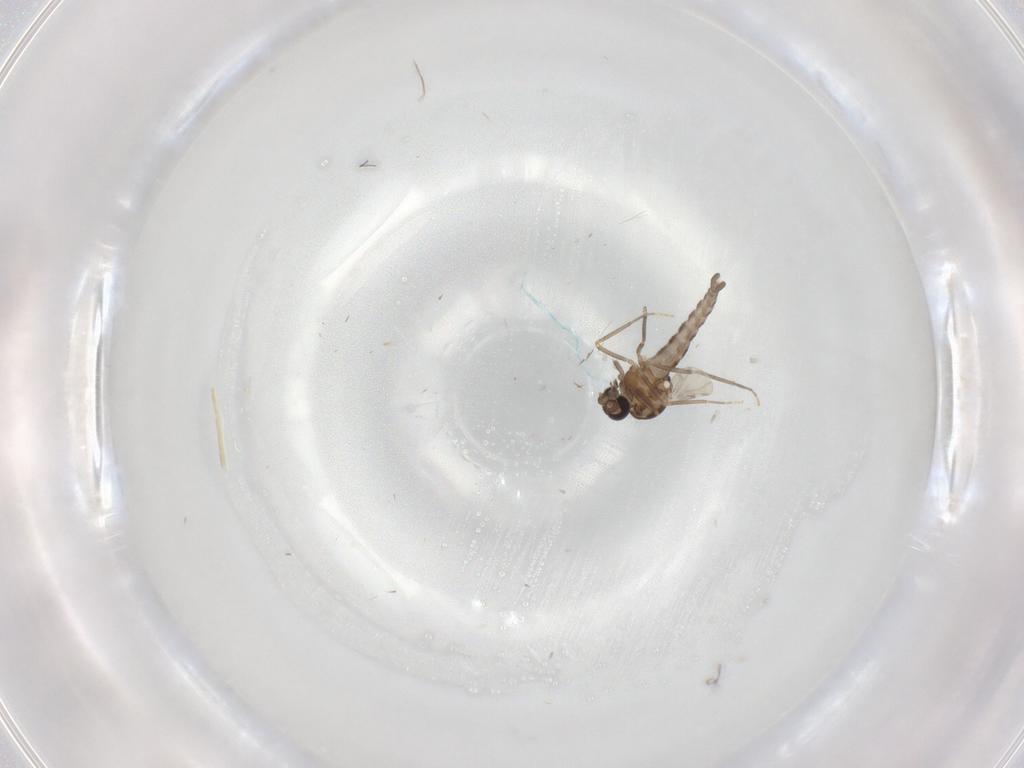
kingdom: Animalia
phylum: Arthropoda
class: Insecta
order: Diptera
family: Ceratopogonidae
